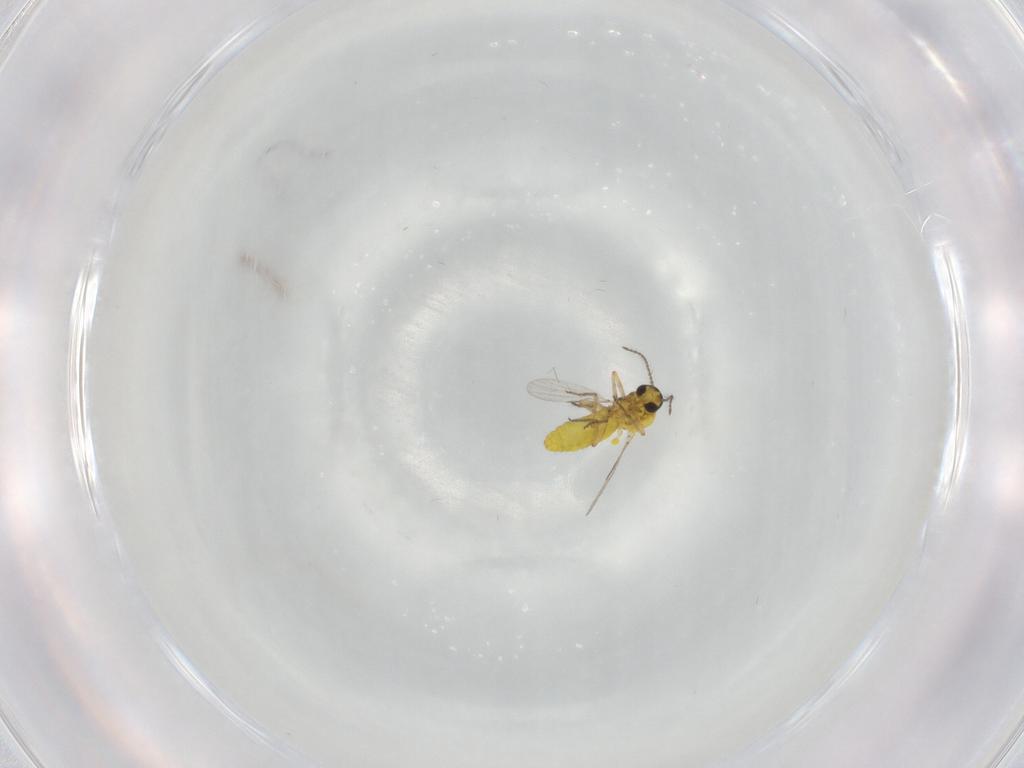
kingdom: Animalia
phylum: Arthropoda
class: Insecta
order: Diptera
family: Ceratopogonidae
